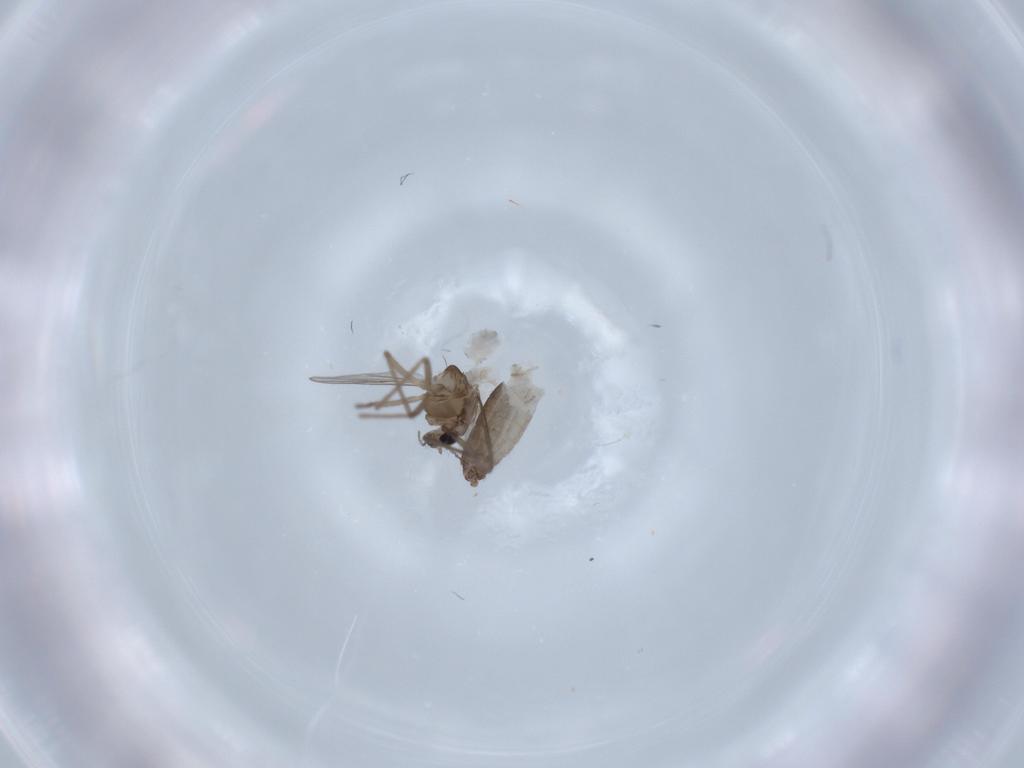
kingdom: Animalia
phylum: Arthropoda
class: Insecta
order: Diptera
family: Chironomidae
